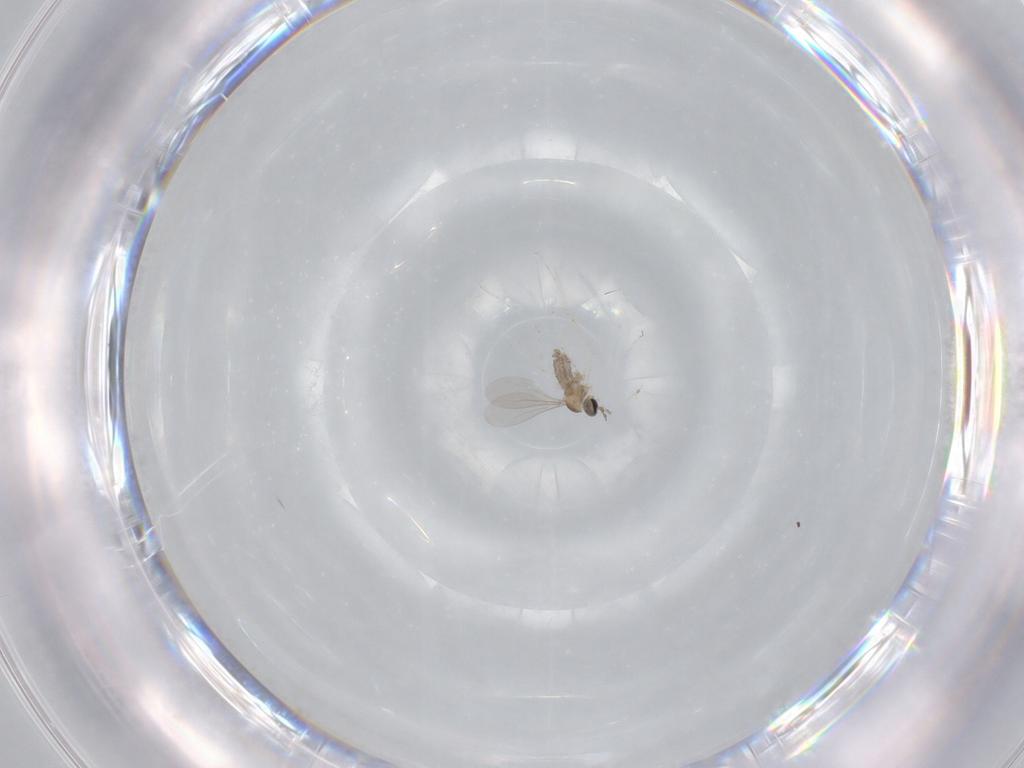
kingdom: Animalia
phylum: Arthropoda
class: Insecta
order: Diptera
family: Cecidomyiidae
